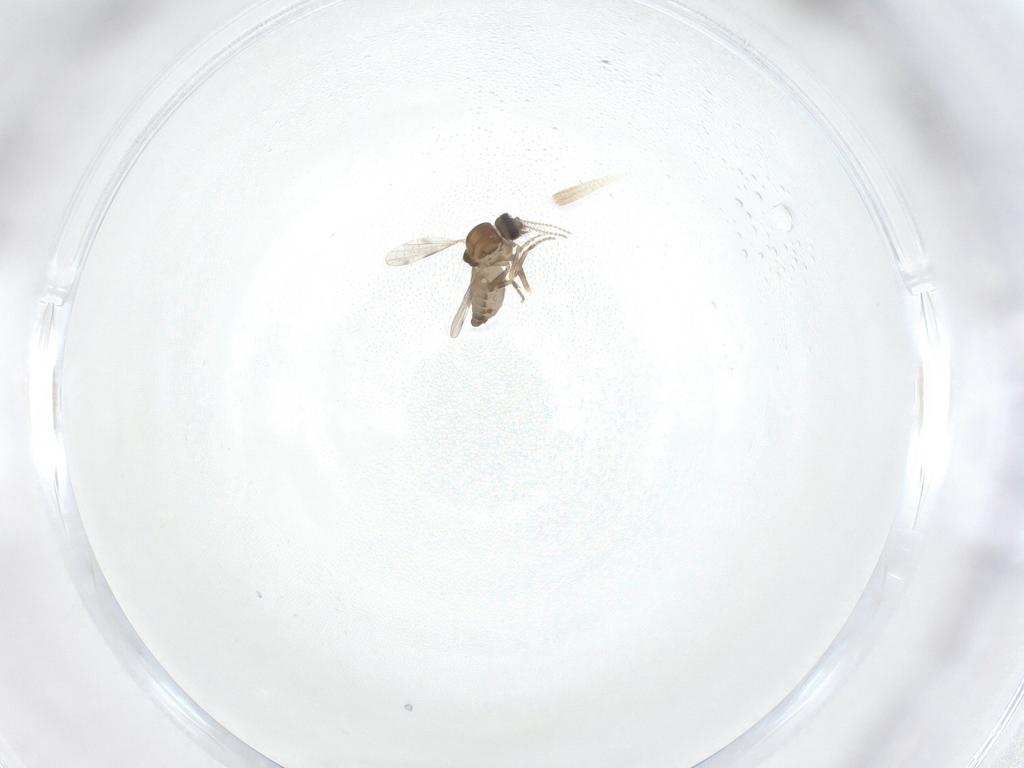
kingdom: Animalia
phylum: Arthropoda
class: Insecta
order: Diptera
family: Ceratopogonidae
